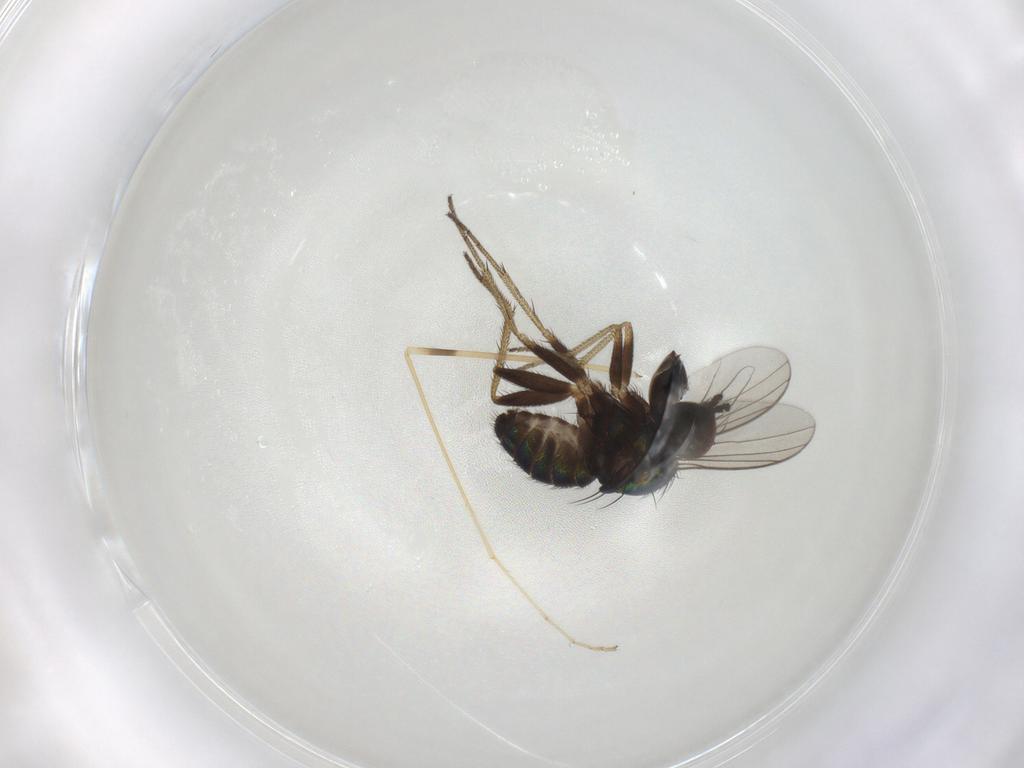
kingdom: Animalia
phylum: Arthropoda
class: Insecta
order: Diptera
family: Limoniidae
